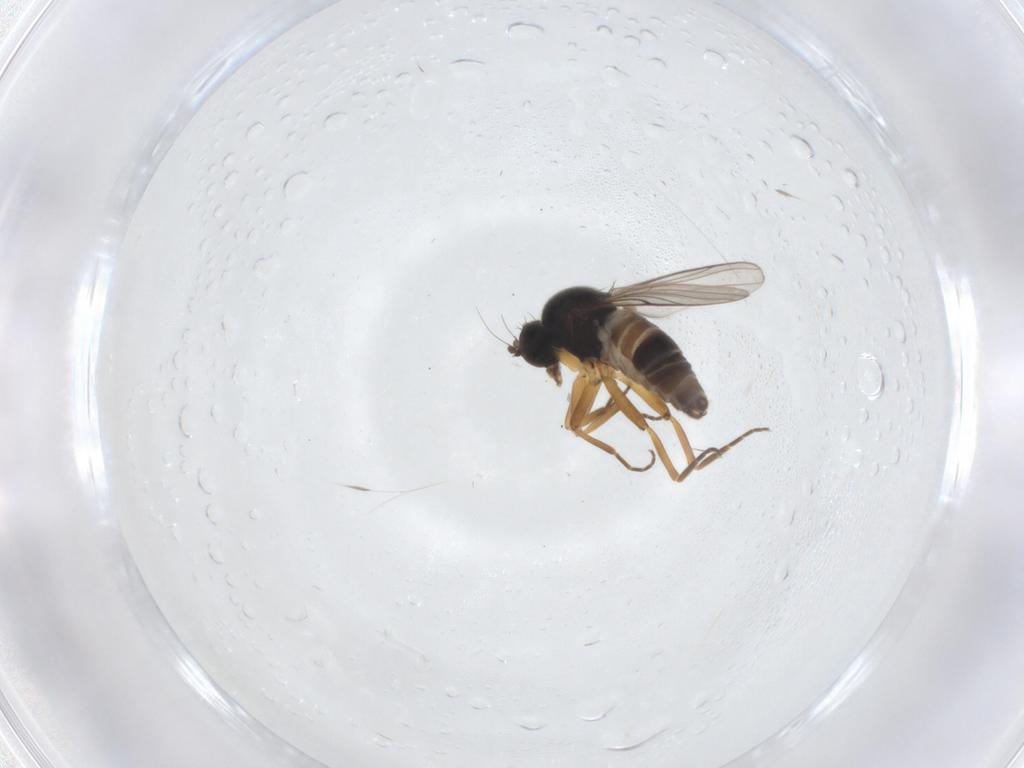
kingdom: Animalia
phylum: Arthropoda
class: Insecta
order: Diptera
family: Hybotidae
